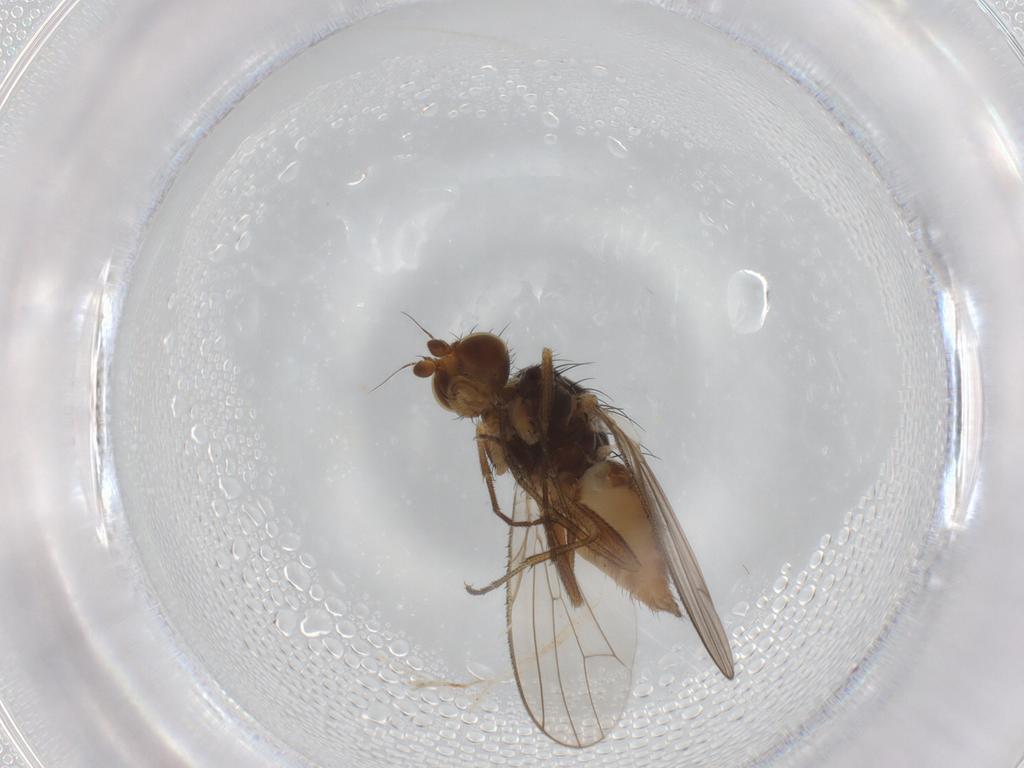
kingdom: Animalia
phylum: Arthropoda
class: Insecta
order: Diptera
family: Heleomyzidae
